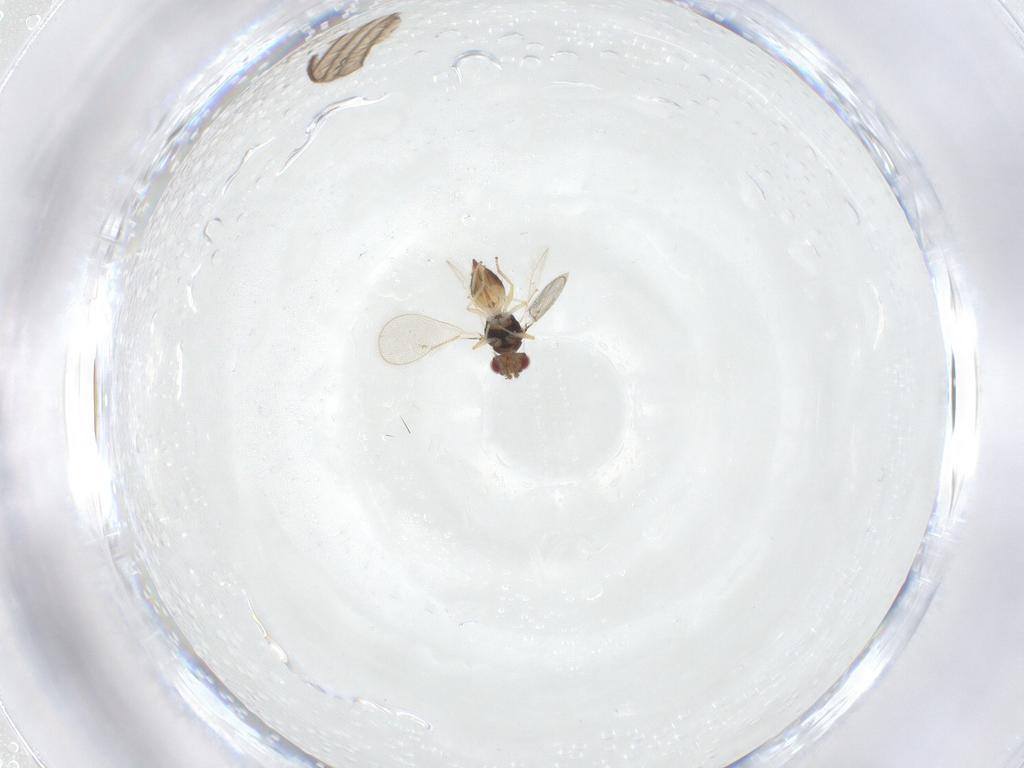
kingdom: Animalia
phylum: Arthropoda
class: Insecta
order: Hymenoptera
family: Eulophidae
